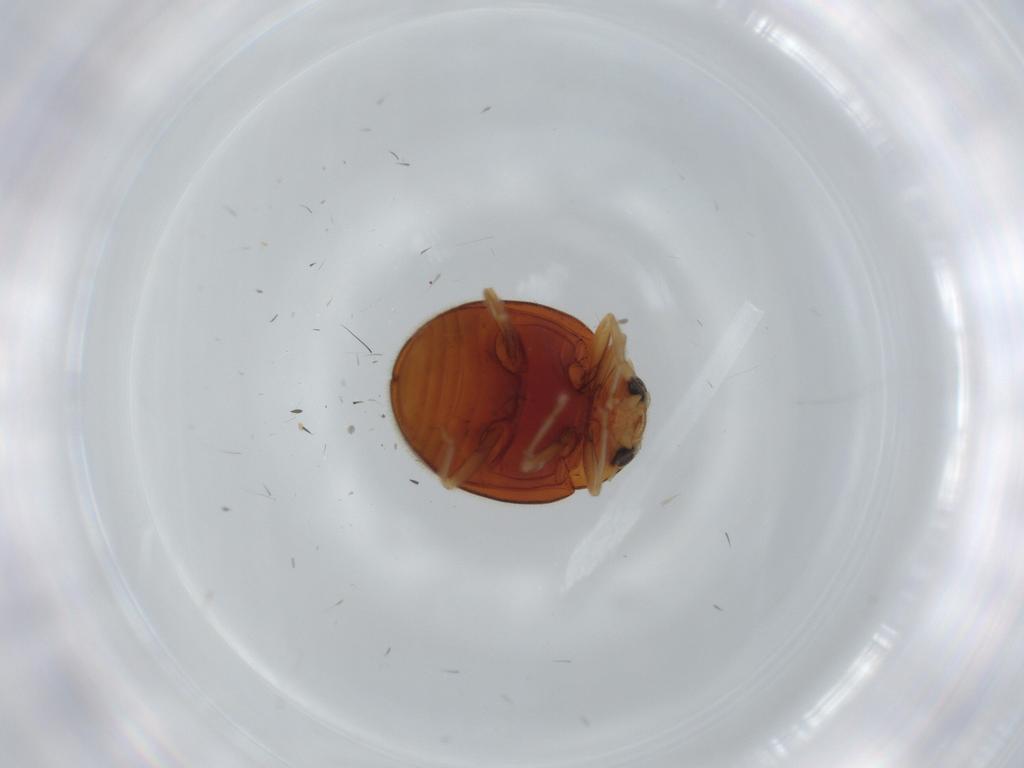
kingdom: Animalia
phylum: Arthropoda
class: Insecta
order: Coleoptera
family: Coccinellidae
